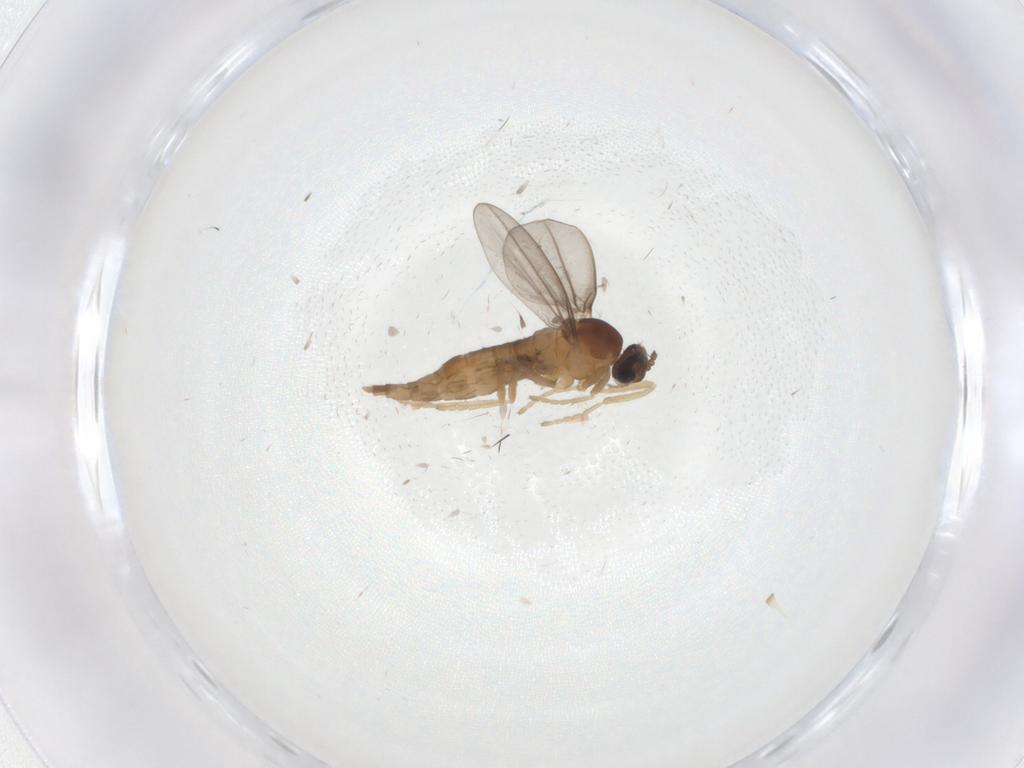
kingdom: Animalia
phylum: Arthropoda
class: Insecta
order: Diptera
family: Cecidomyiidae
